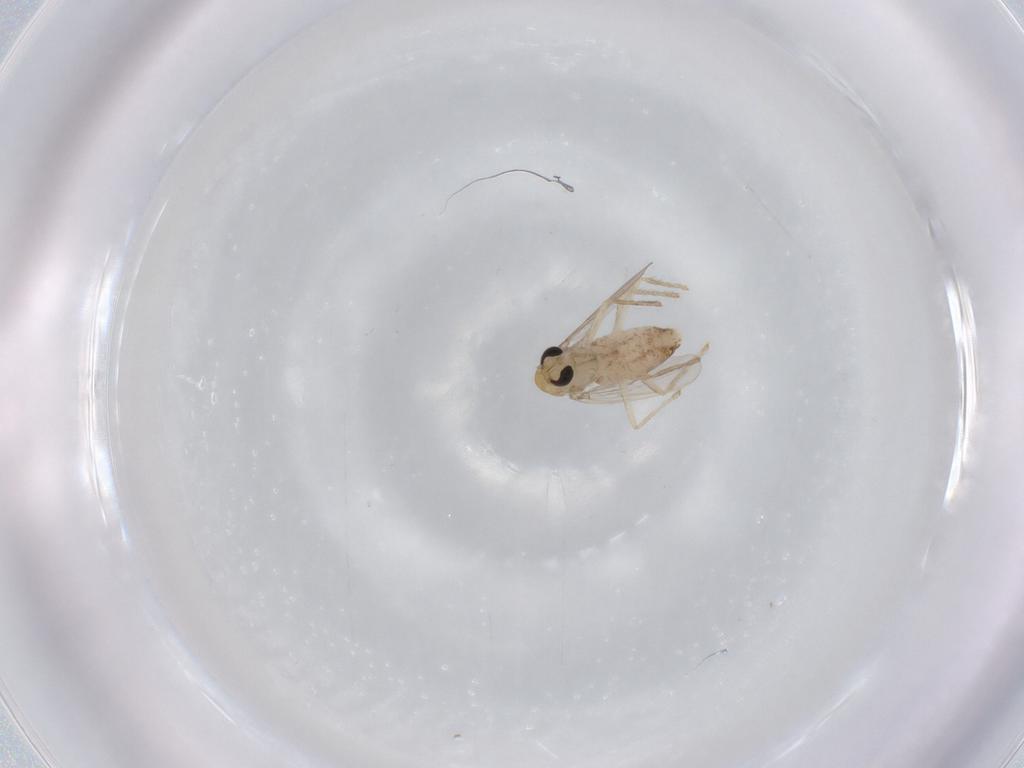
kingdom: Animalia
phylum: Arthropoda
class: Insecta
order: Diptera
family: Chironomidae
